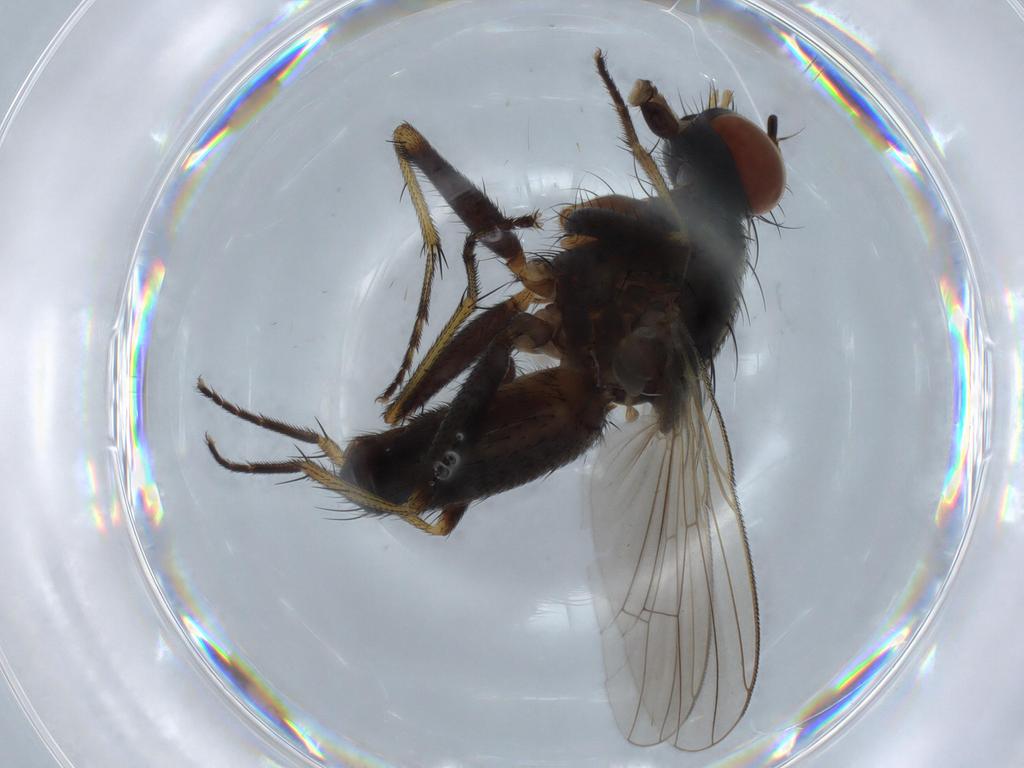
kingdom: Animalia
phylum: Arthropoda
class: Insecta
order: Diptera
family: Muscidae
